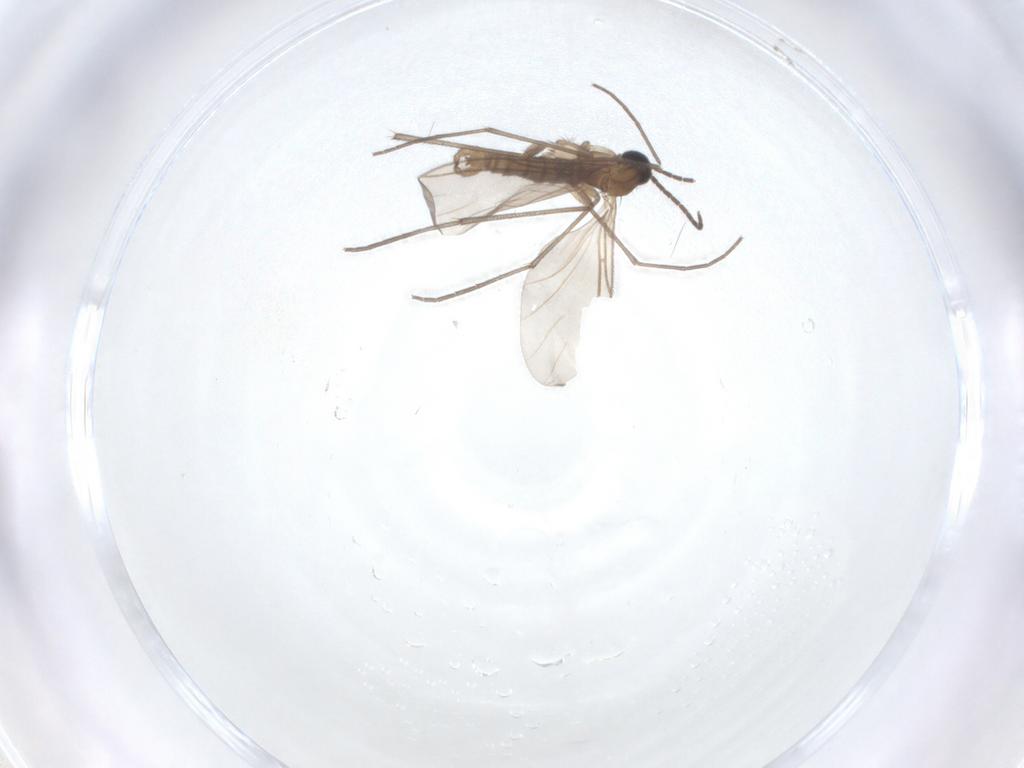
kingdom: Animalia
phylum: Arthropoda
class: Insecta
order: Diptera
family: Sciaridae
